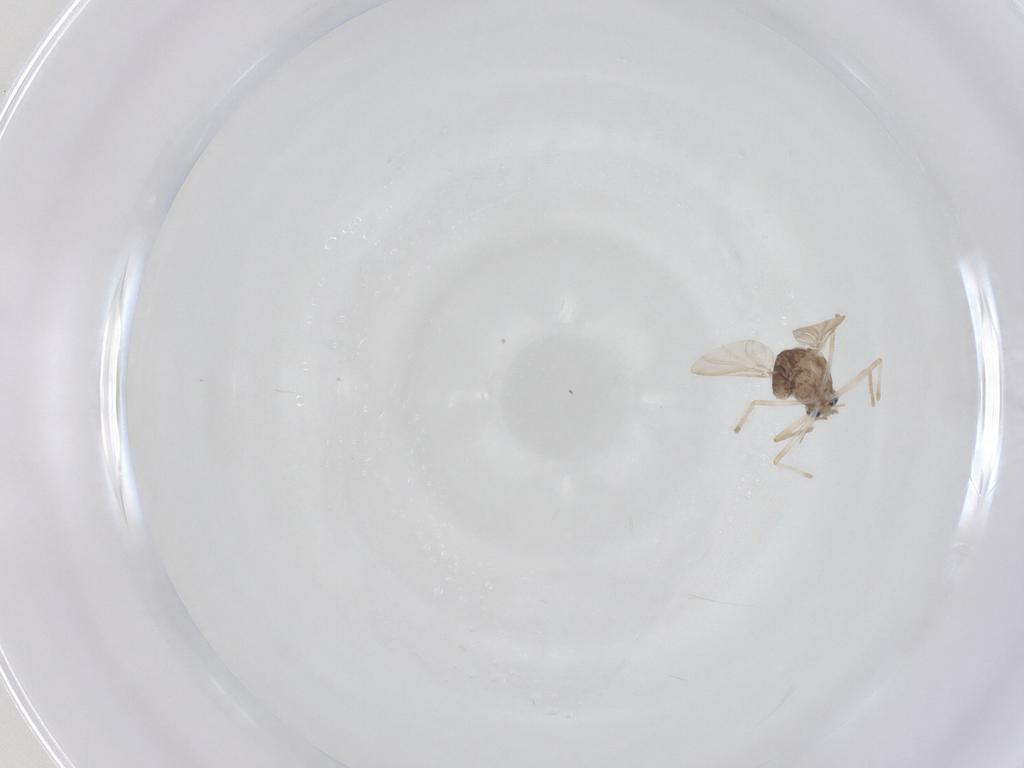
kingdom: Animalia
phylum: Arthropoda
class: Insecta
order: Diptera
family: Chironomidae
